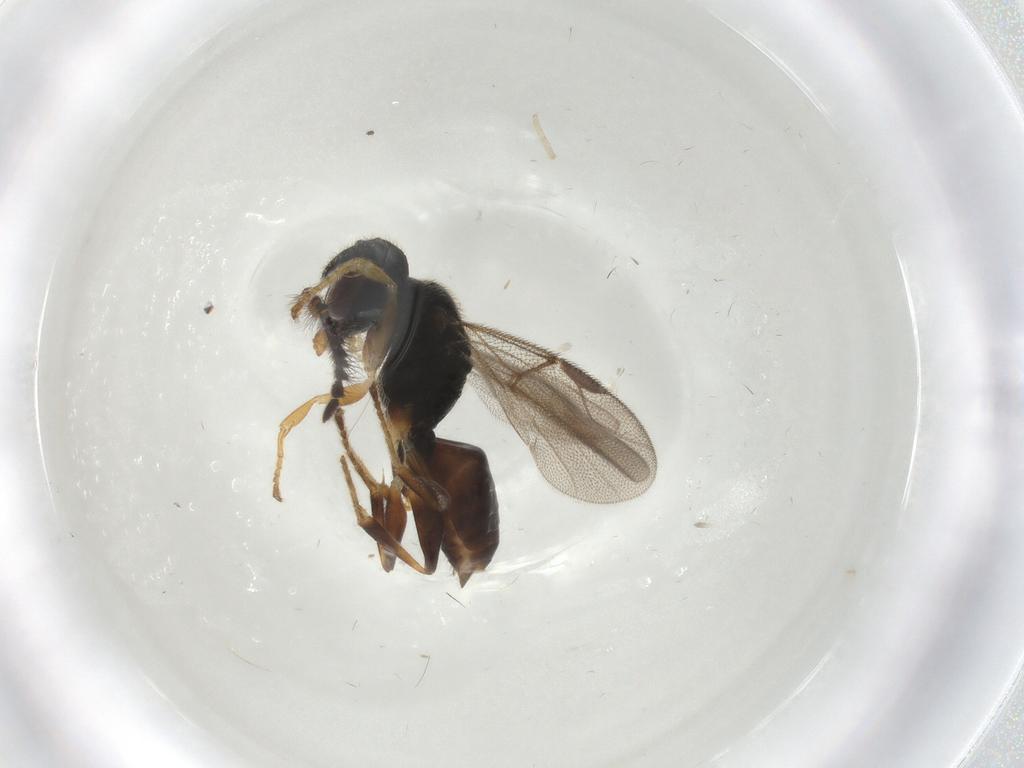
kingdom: Animalia
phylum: Arthropoda
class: Insecta
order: Hymenoptera
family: Dryinidae
